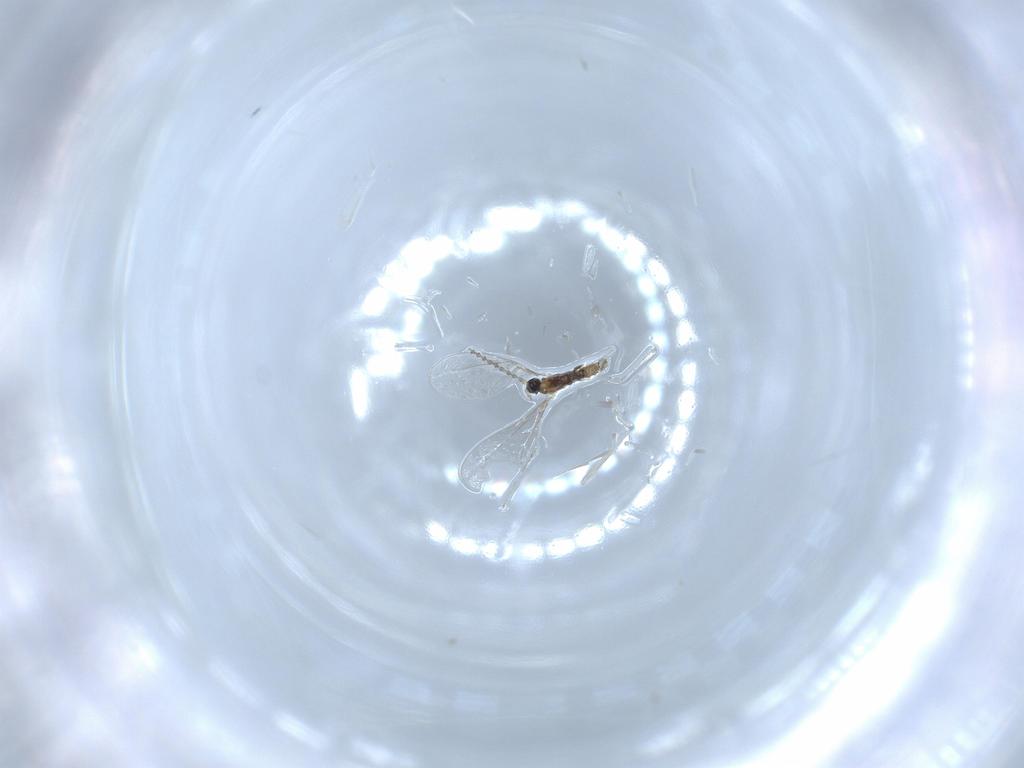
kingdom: Animalia
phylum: Arthropoda
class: Insecta
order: Diptera
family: Cecidomyiidae
